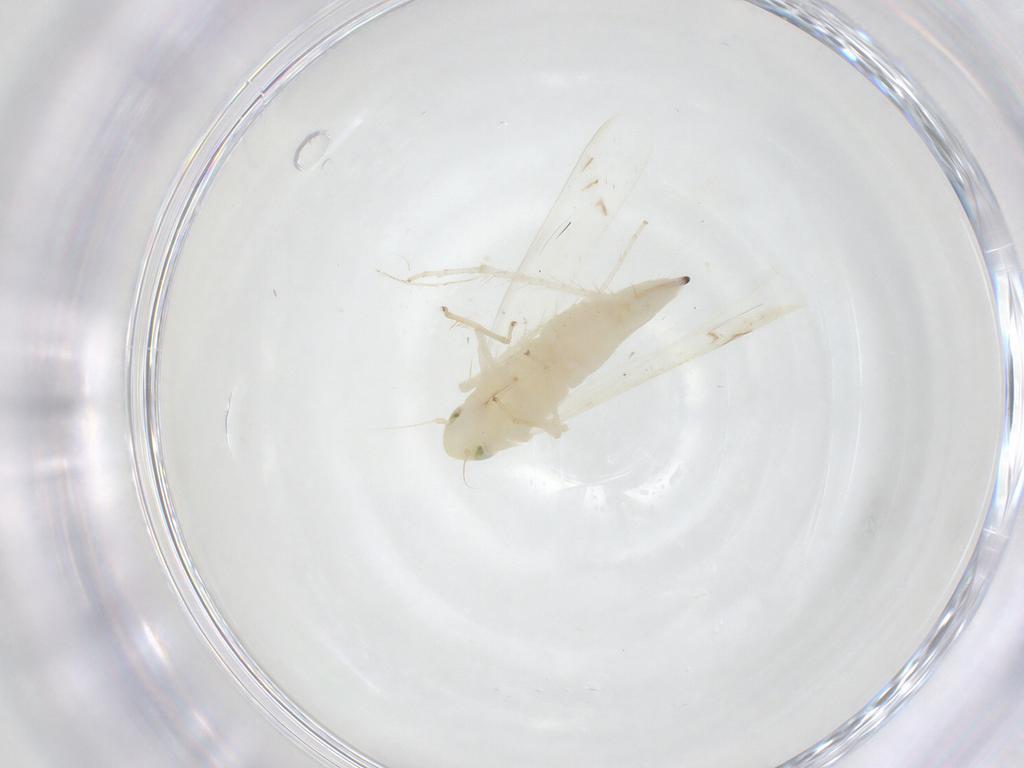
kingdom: Animalia
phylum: Arthropoda
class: Insecta
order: Hemiptera
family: Cicadellidae
